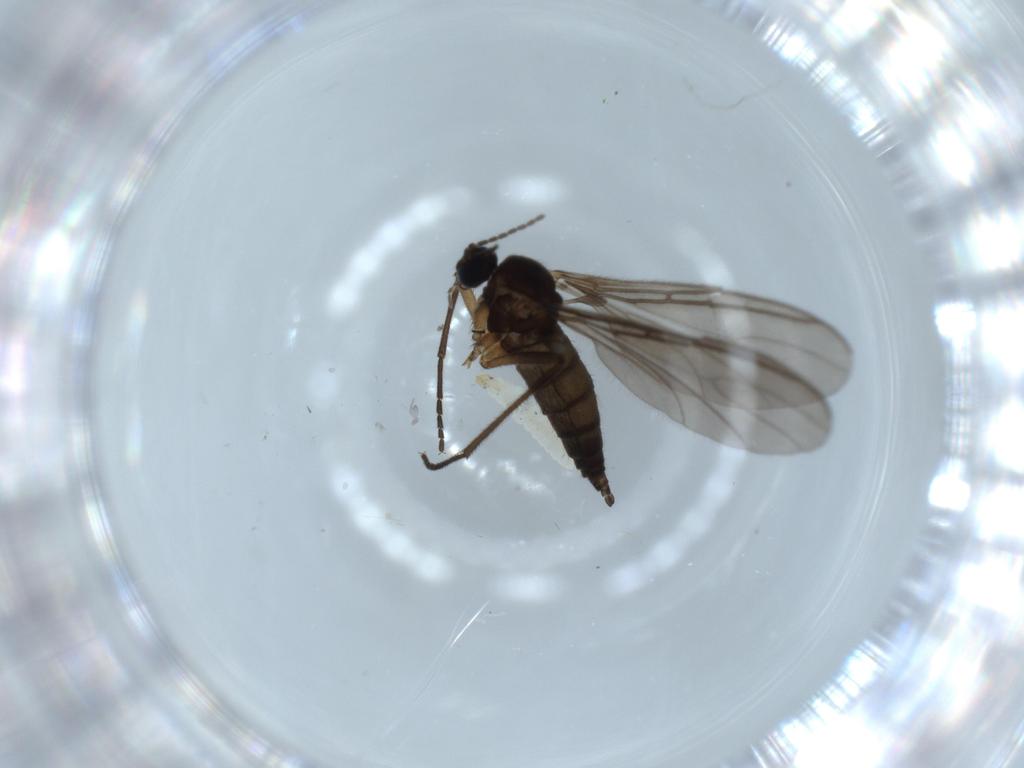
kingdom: Animalia
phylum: Arthropoda
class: Insecta
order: Diptera
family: Sciaridae
